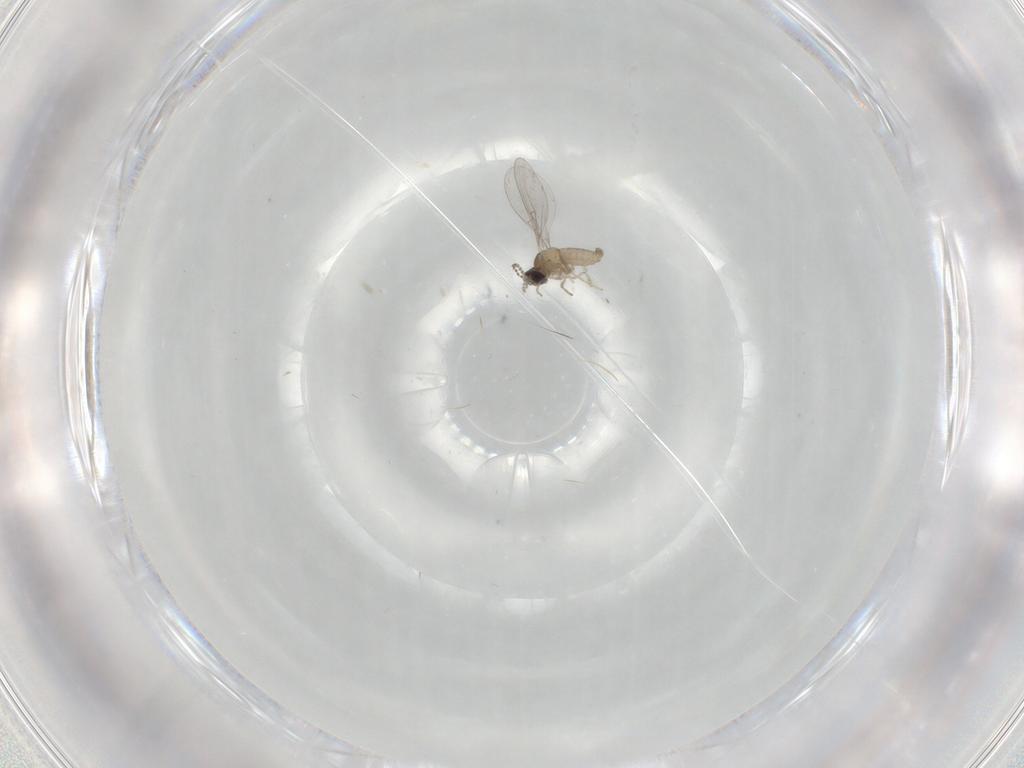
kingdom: Animalia
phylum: Arthropoda
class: Insecta
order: Diptera
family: Cecidomyiidae
